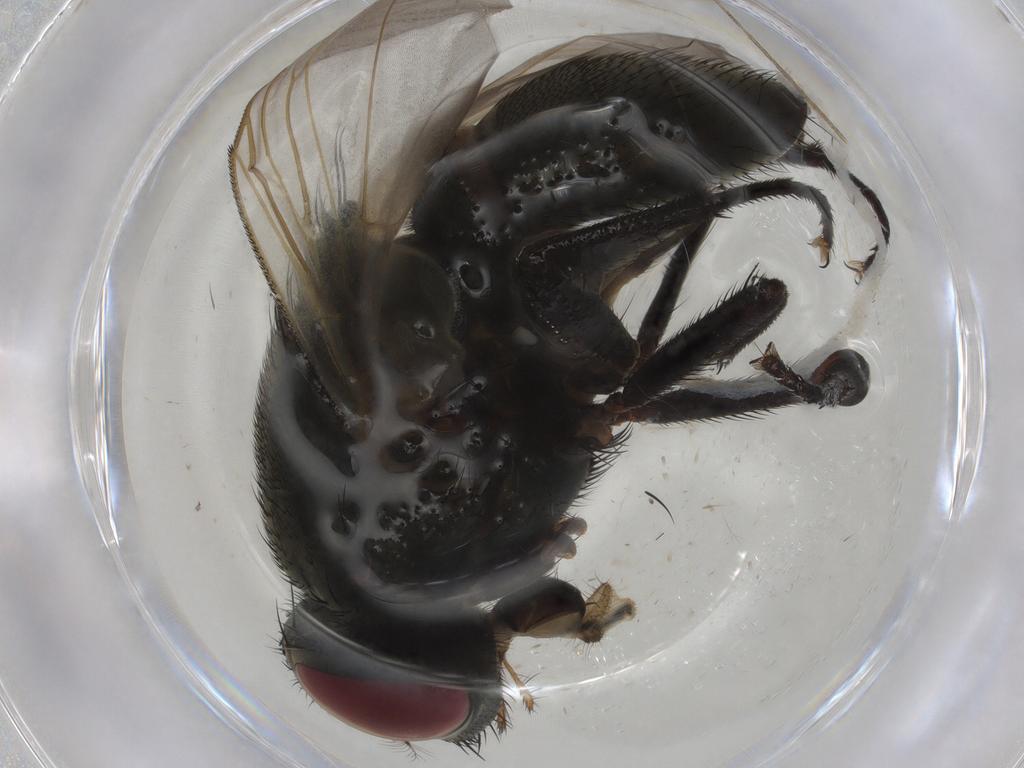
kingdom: Animalia
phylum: Arthropoda
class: Insecta
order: Diptera
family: Muscidae
